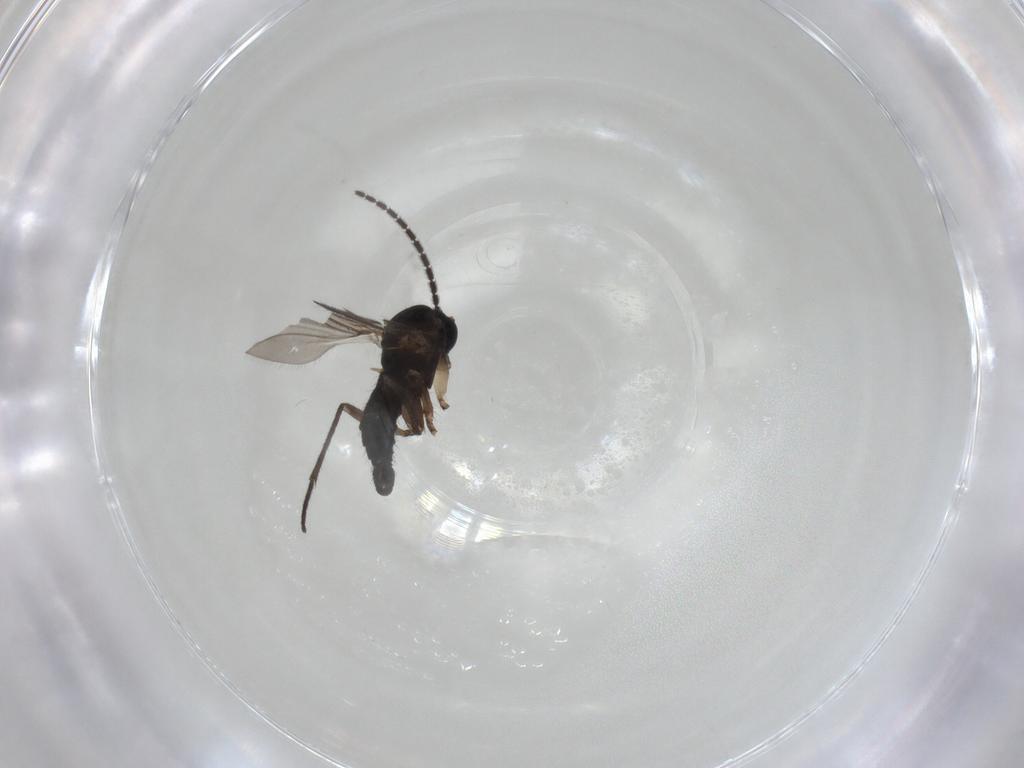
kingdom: Animalia
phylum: Arthropoda
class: Insecta
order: Diptera
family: Sciaridae
